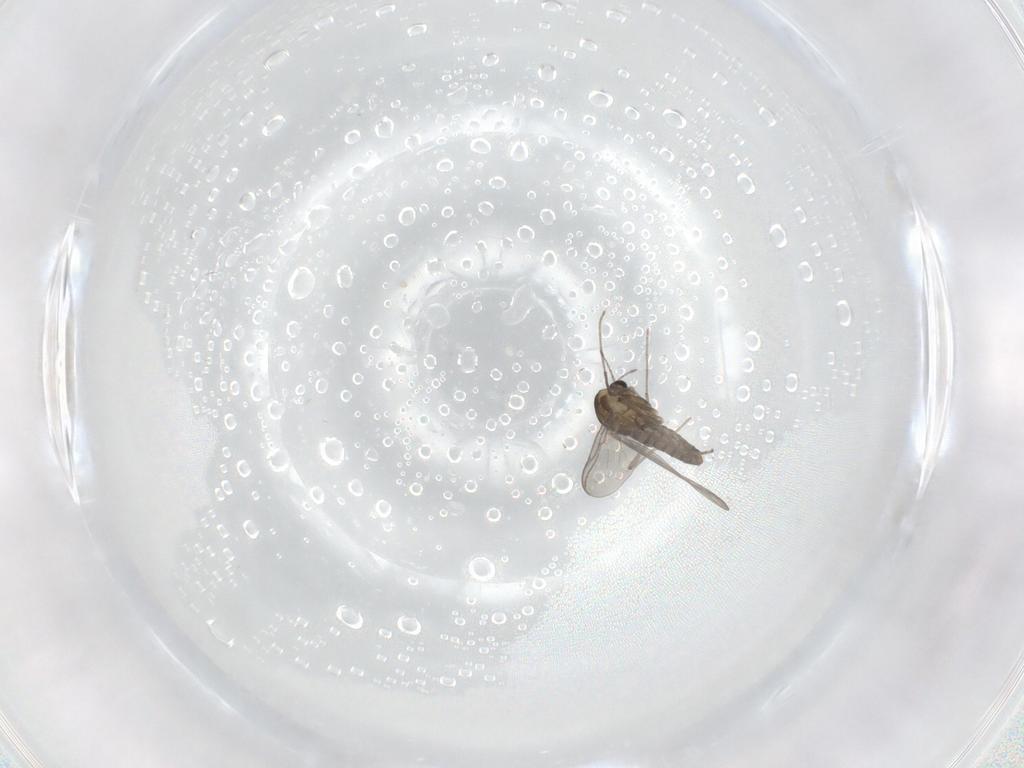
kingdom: Animalia
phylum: Arthropoda
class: Insecta
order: Diptera
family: Chironomidae
